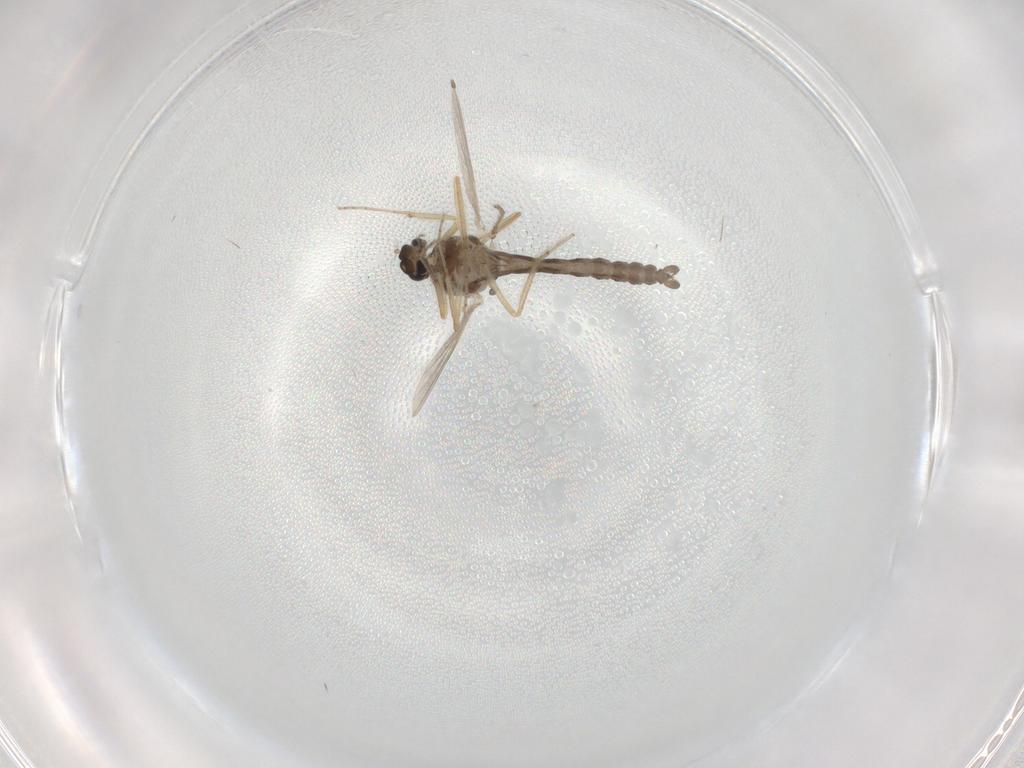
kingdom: Animalia
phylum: Arthropoda
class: Insecta
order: Diptera
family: Ceratopogonidae
